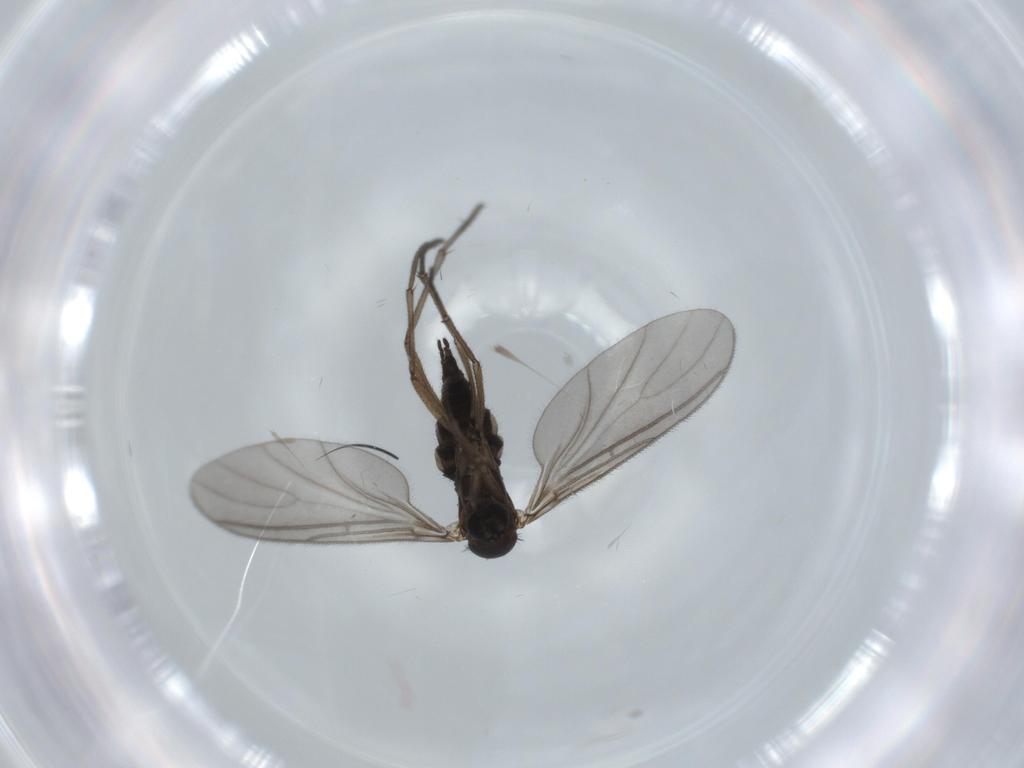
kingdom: Animalia
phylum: Arthropoda
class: Insecta
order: Diptera
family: Sciaridae
